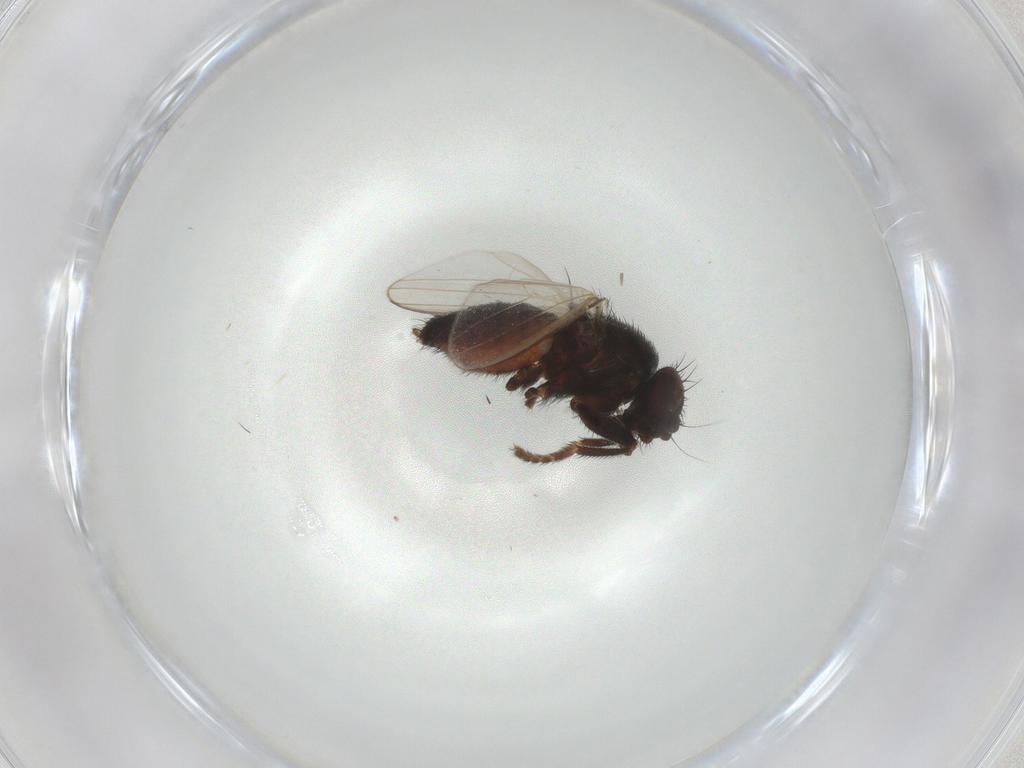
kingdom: Animalia
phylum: Arthropoda
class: Insecta
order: Diptera
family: Milichiidae
